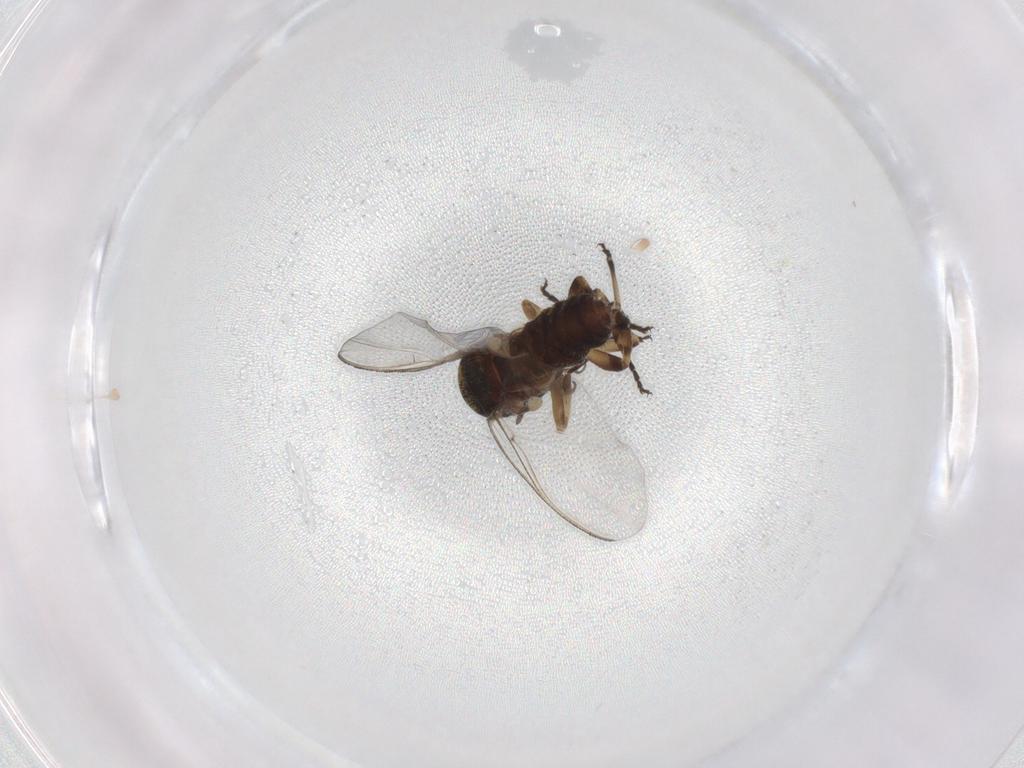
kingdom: Animalia
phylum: Arthropoda
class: Insecta
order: Diptera
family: Simuliidae
